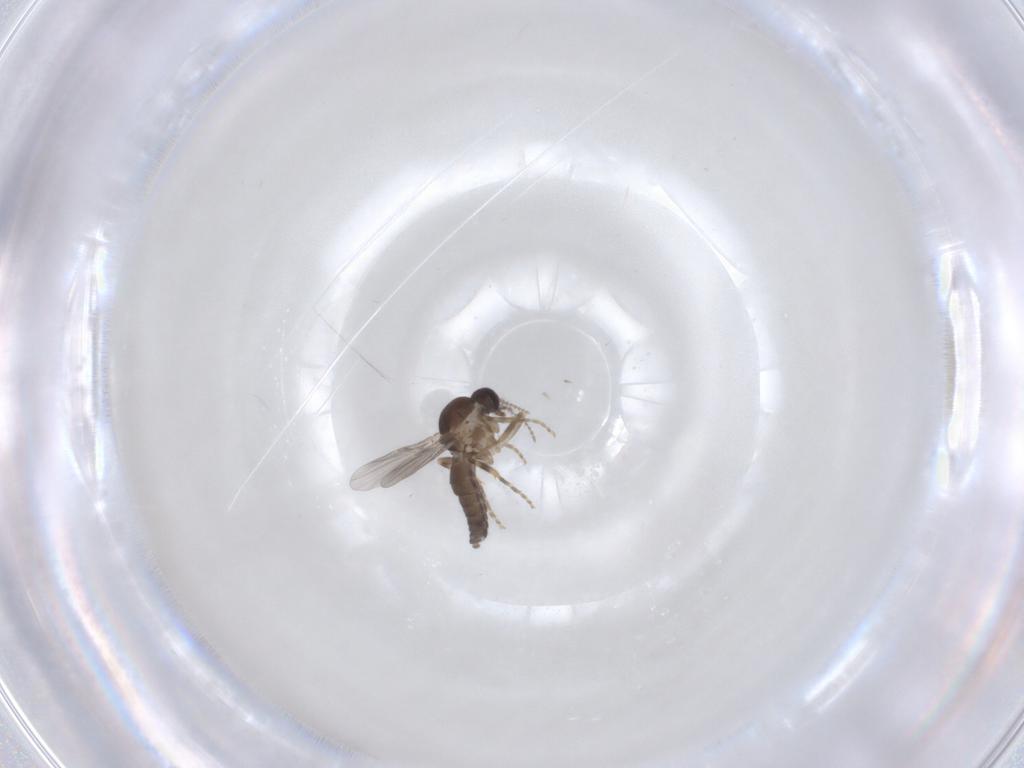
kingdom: Animalia
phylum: Arthropoda
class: Insecta
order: Diptera
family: Ceratopogonidae
